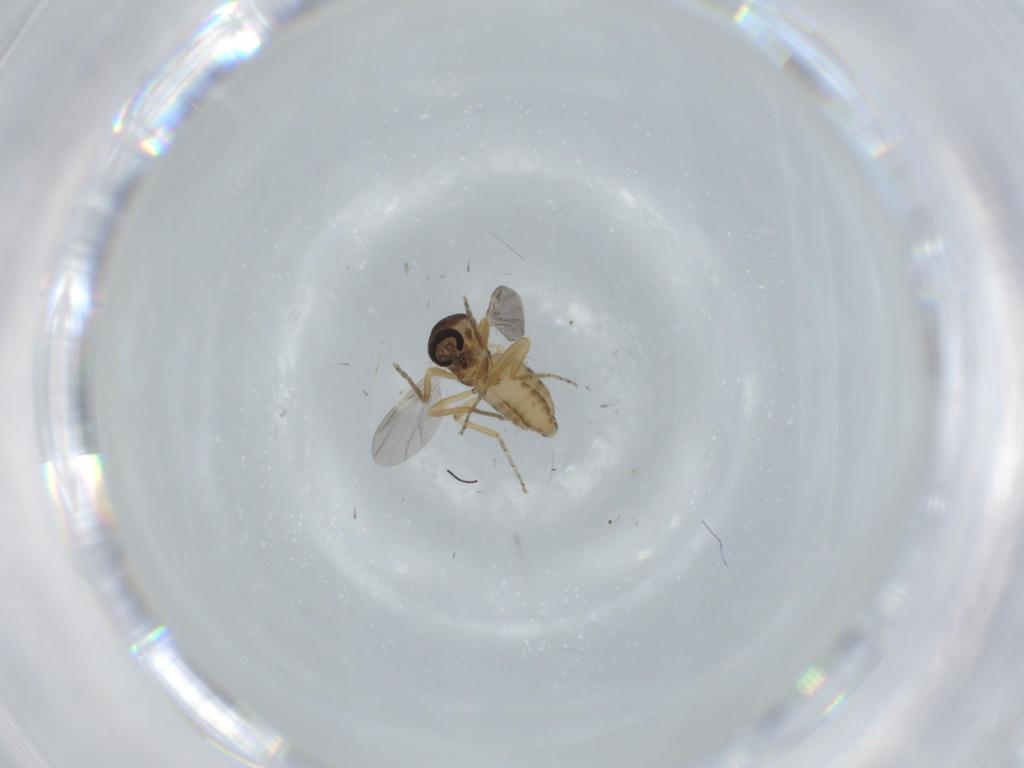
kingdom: Animalia
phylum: Arthropoda
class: Insecta
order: Diptera
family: Ceratopogonidae
